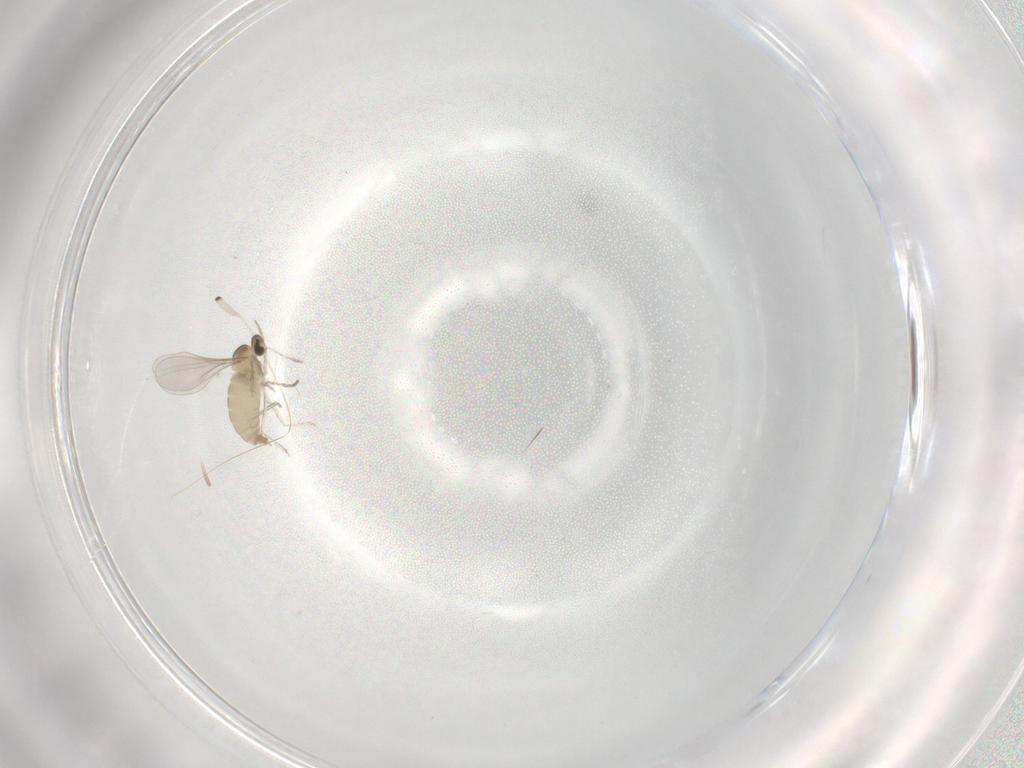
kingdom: Animalia
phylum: Arthropoda
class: Insecta
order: Diptera
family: Cecidomyiidae
